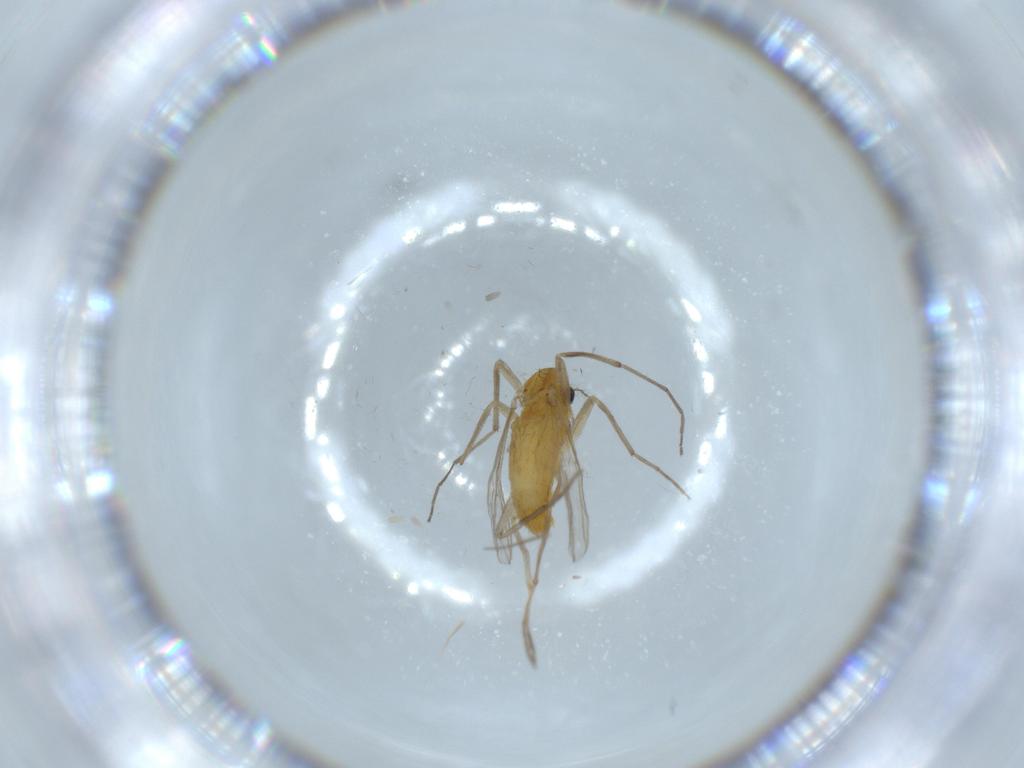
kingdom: Animalia
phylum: Arthropoda
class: Insecta
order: Diptera
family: Chironomidae
